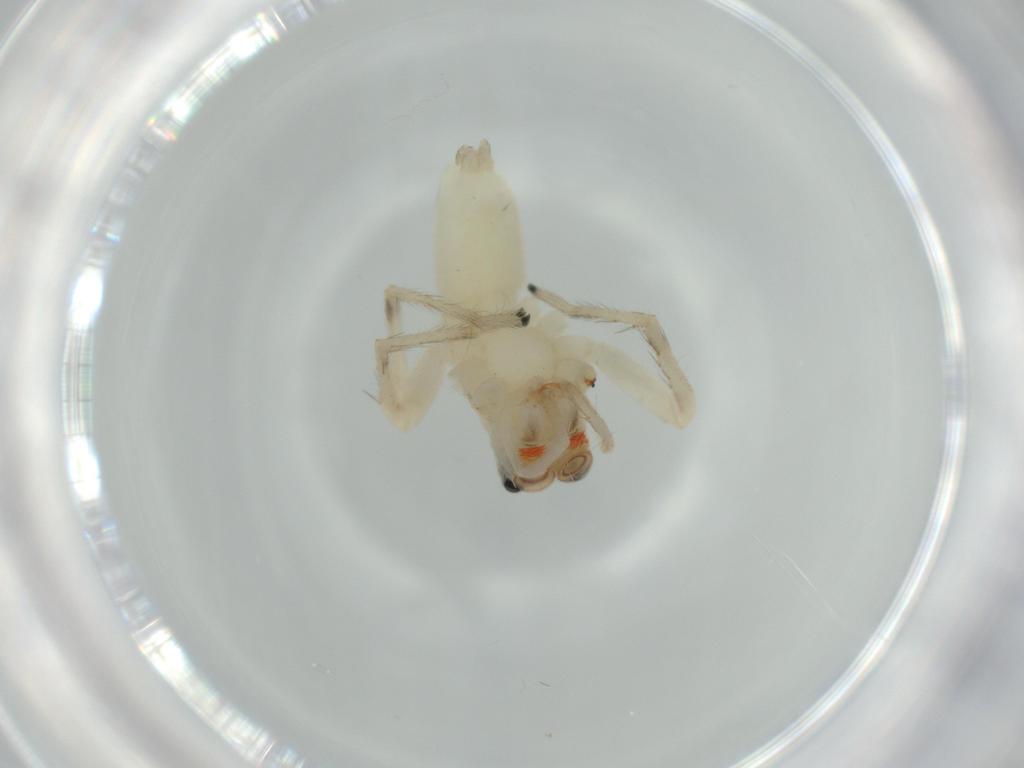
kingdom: Animalia
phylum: Arthropoda
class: Arachnida
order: Araneae
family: Salticidae
